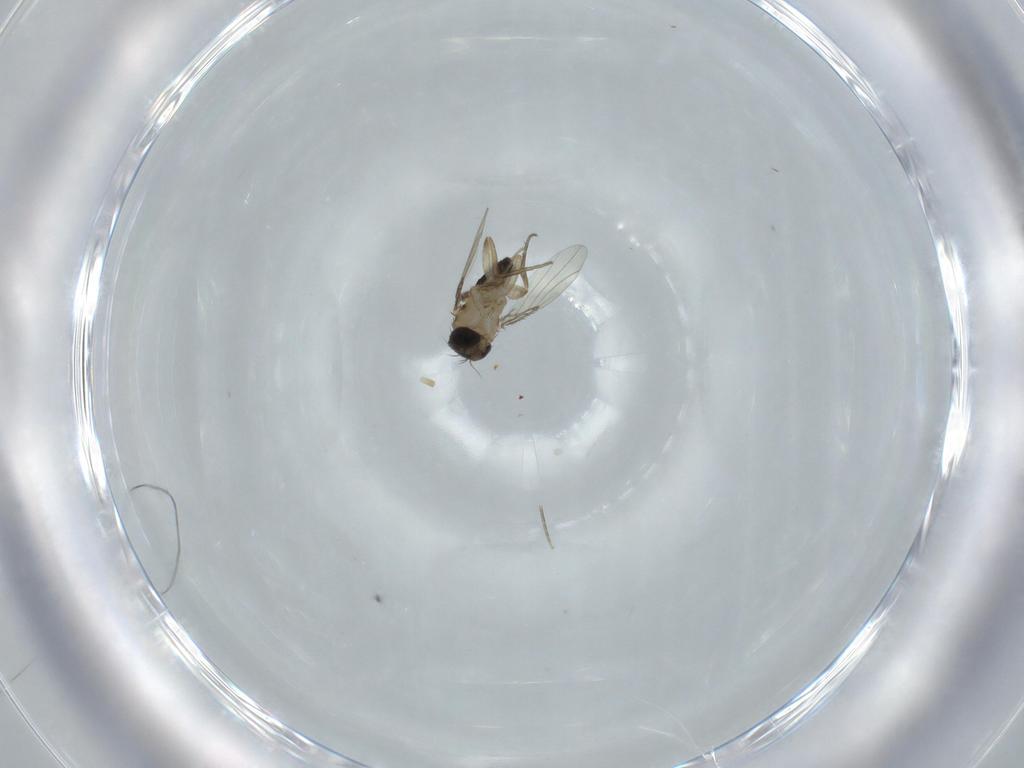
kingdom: Animalia
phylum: Arthropoda
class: Insecta
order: Diptera
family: Phoridae
